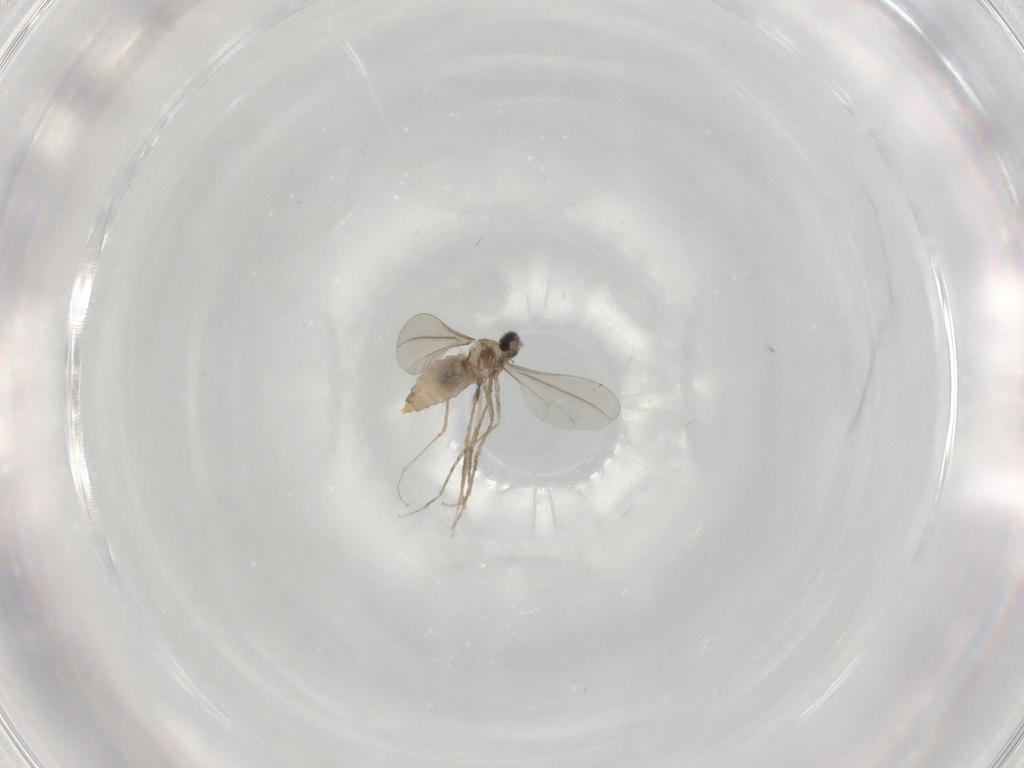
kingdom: Animalia
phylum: Arthropoda
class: Insecta
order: Diptera
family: Cecidomyiidae
